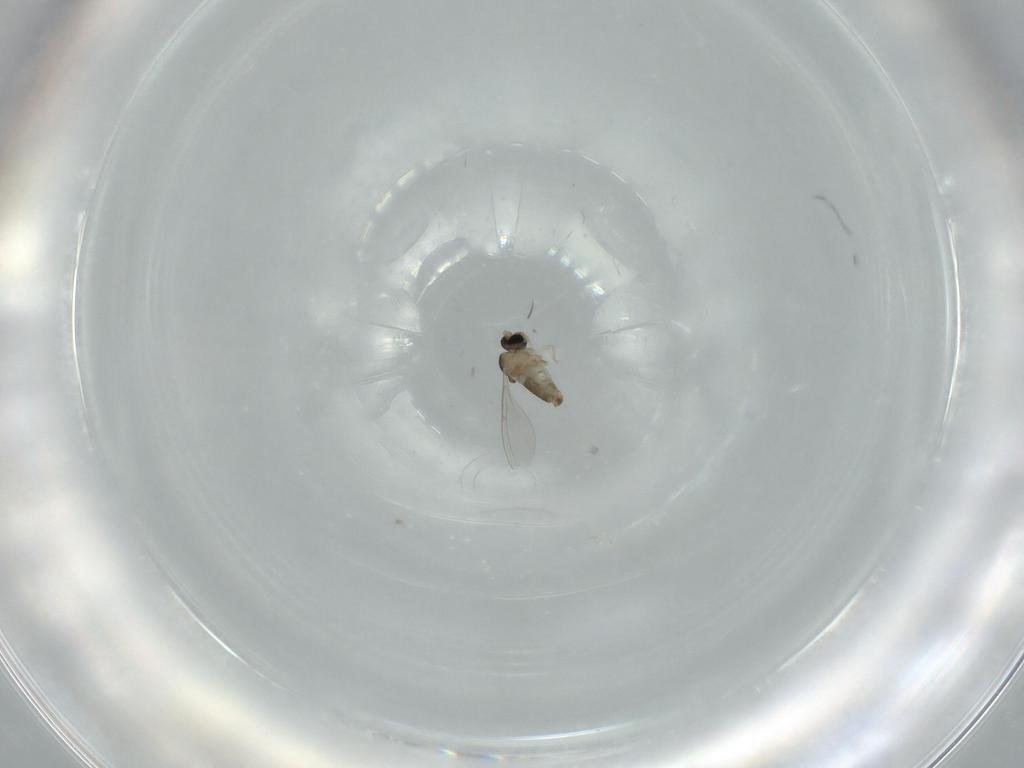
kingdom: Animalia
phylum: Arthropoda
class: Insecta
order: Diptera
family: Cecidomyiidae
